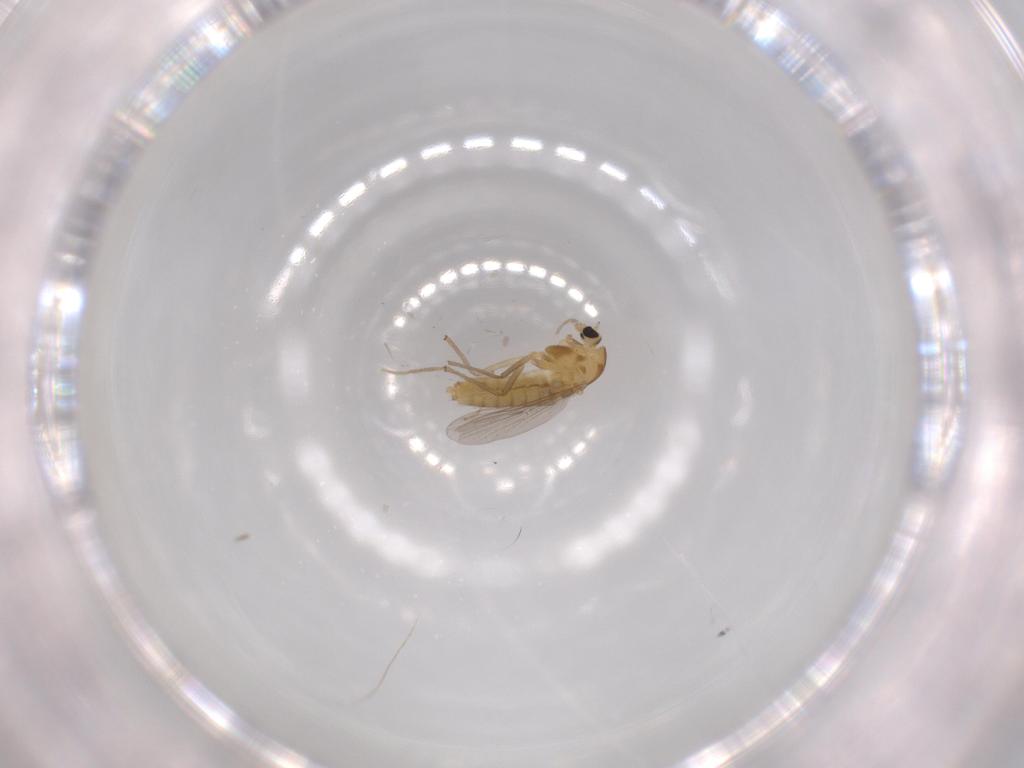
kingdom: Animalia
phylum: Arthropoda
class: Insecta
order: Diptera
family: Chironomidae
